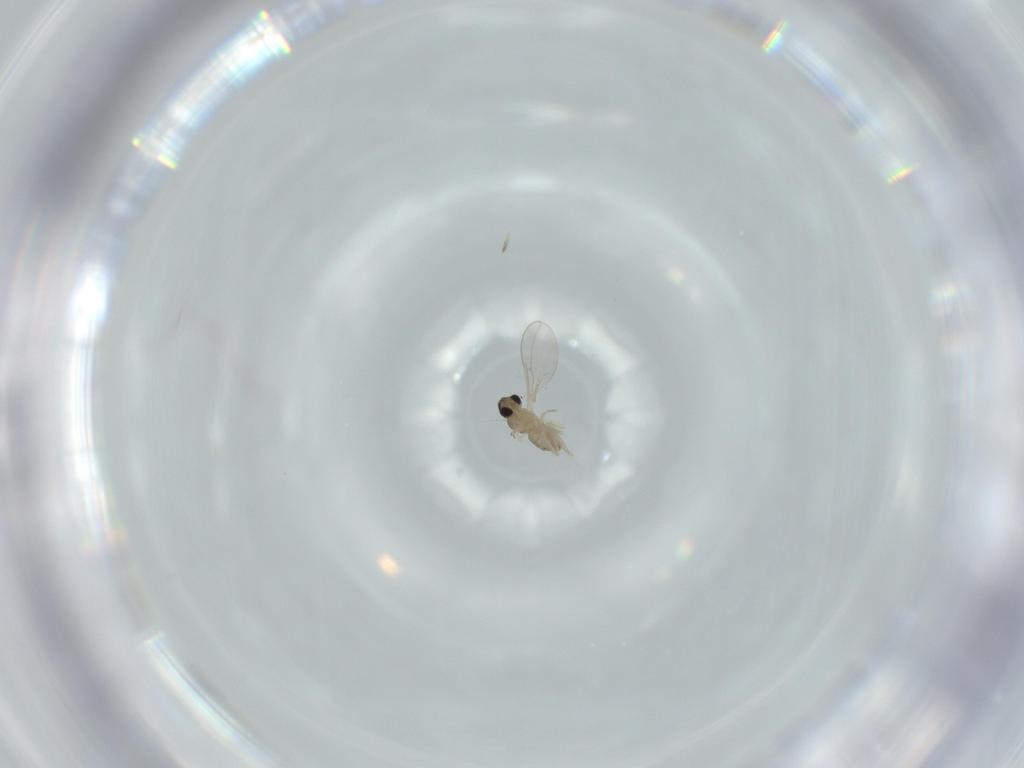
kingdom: Animalia
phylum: Arthropoda
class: Insecta
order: Diptera
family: Cecidomyiidae
